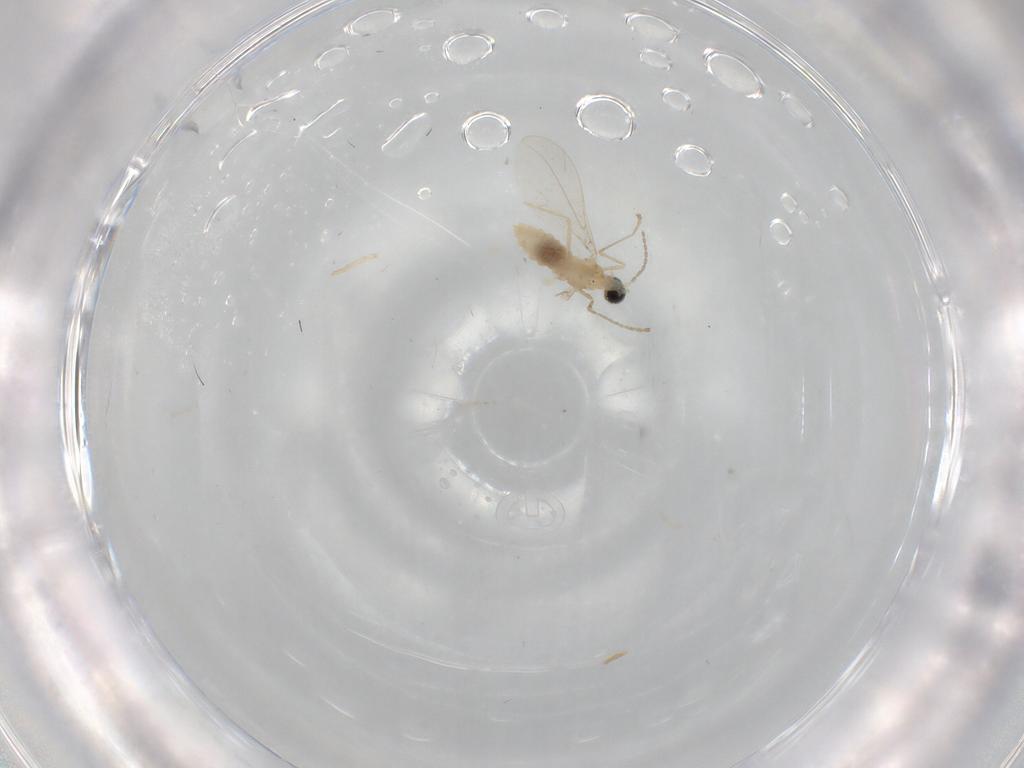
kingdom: Animalia
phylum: Arthropoda
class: Insecta
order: Diptera
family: Cecidomyiidae
